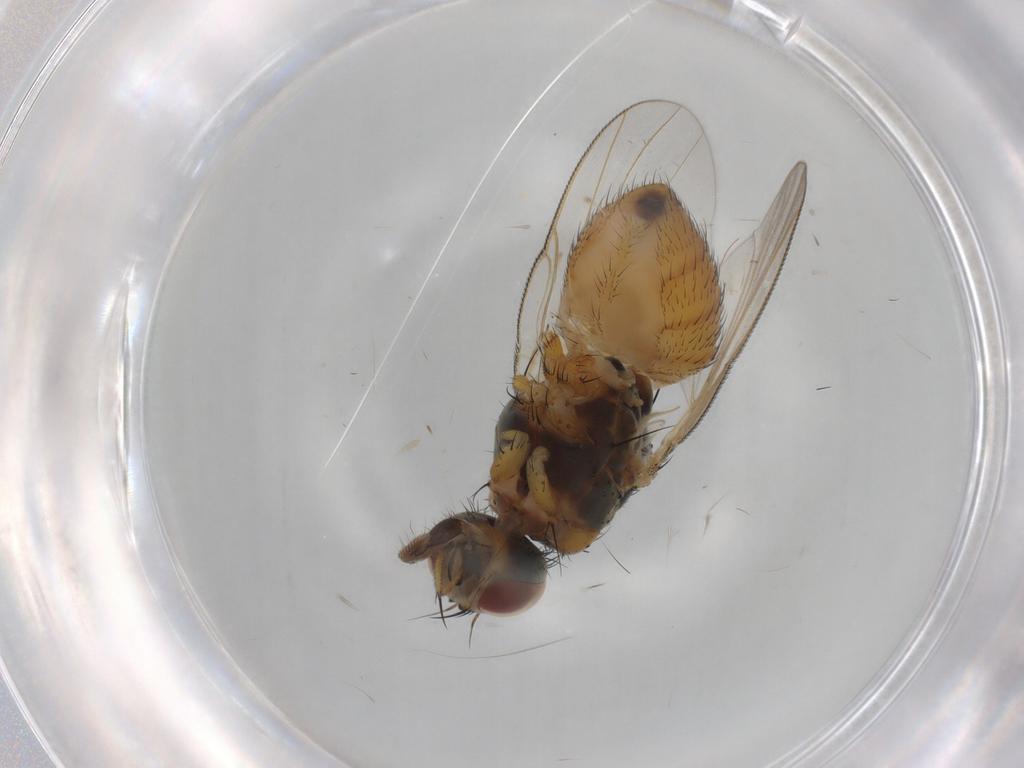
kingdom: Animalia
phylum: Arthropoda
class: Insecta
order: Diptera
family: Muscidae
